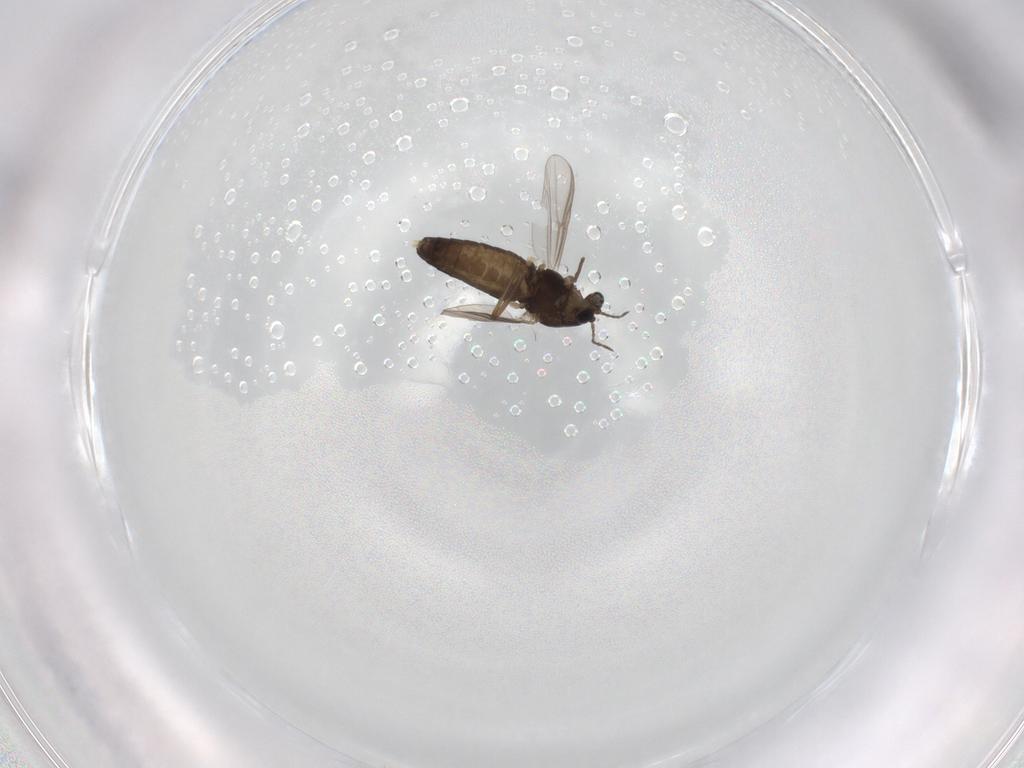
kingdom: Animalia
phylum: Arthropoda
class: Insecta
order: Diptera
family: Chironomidae
